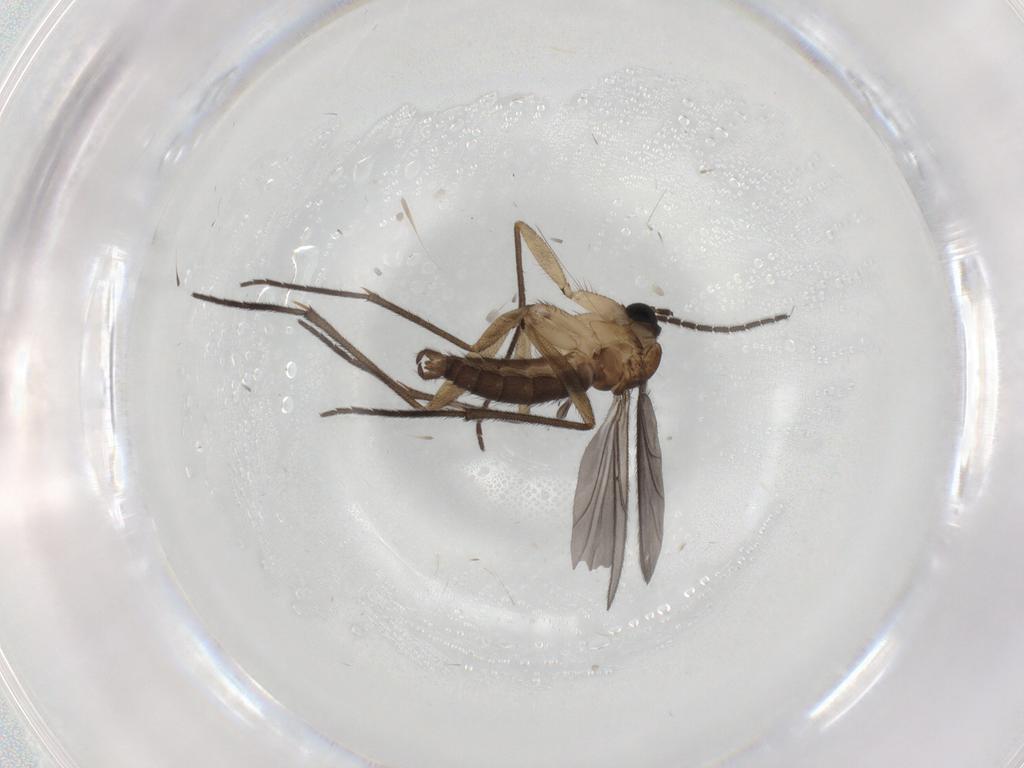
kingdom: Animalia
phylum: Arthropoda
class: Insecta
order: Diptera
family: Sciaridae
